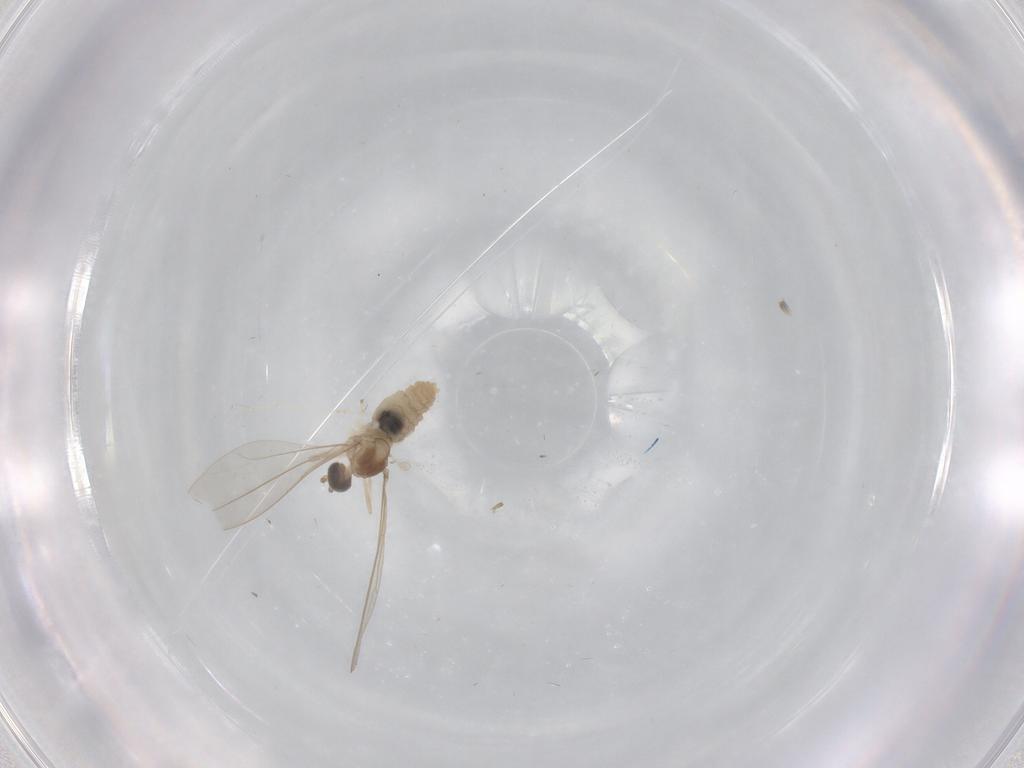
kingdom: Animalia
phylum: Arthropoda
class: Insecta
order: Diptera
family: Cecidomyiidae
